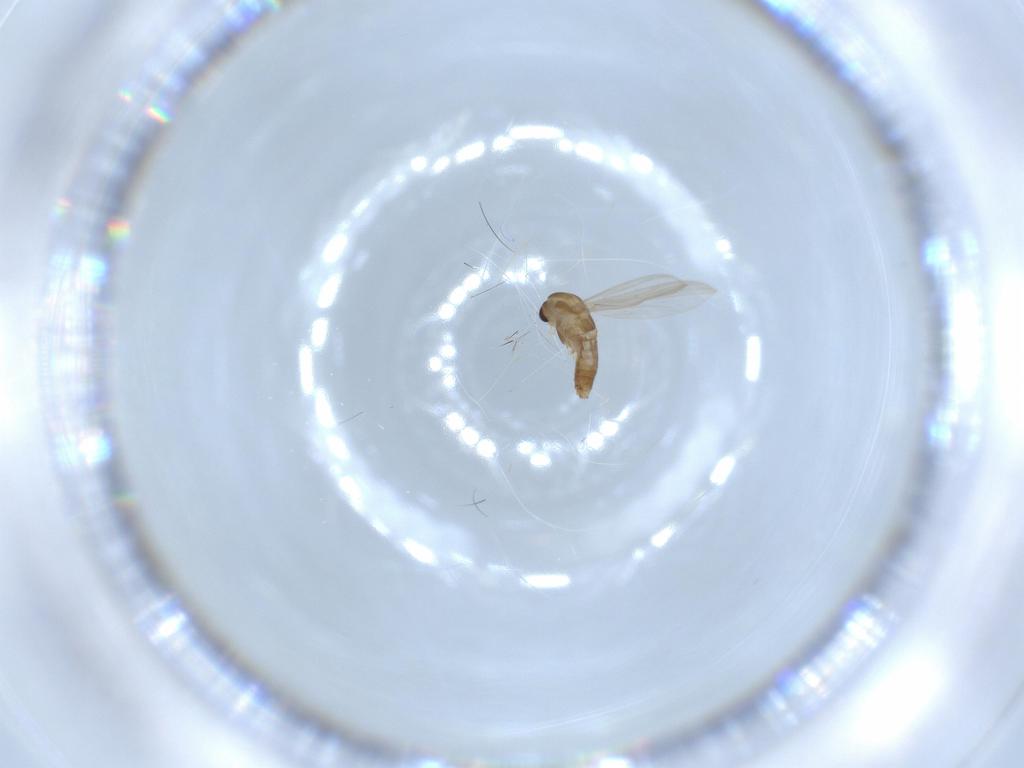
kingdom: Animalia
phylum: Arthropoda
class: Insecta
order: Diptera
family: Chironomidae
